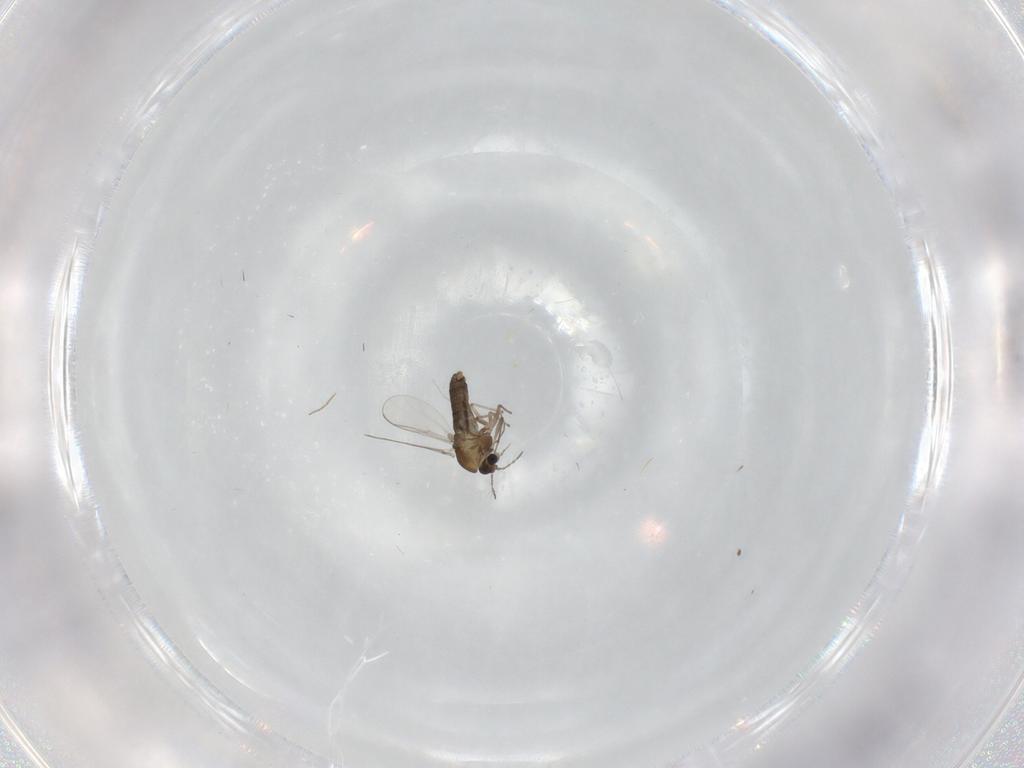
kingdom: Animalia
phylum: Arthropoda
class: Insecta
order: Diptera
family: Chironomidae
